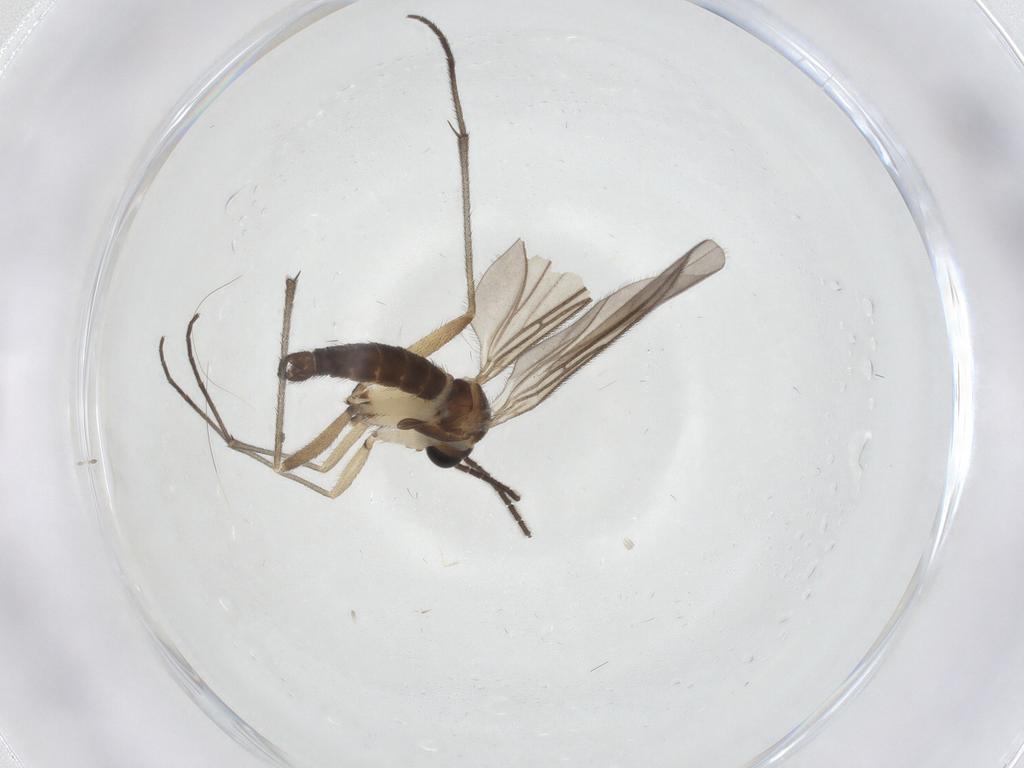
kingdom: Animalia
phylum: Arthropoda
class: Insecta
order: Diptera
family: Sciaridae
